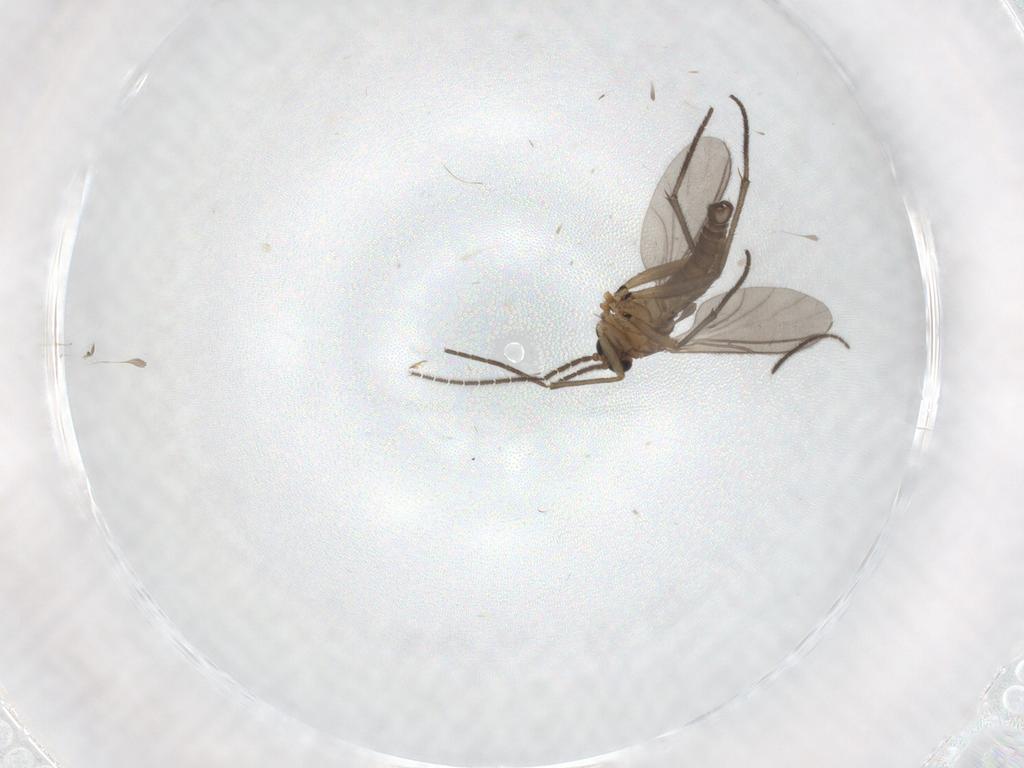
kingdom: Animalia
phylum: Arthropoda
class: Insecta
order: Diptera
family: Sciaridae
